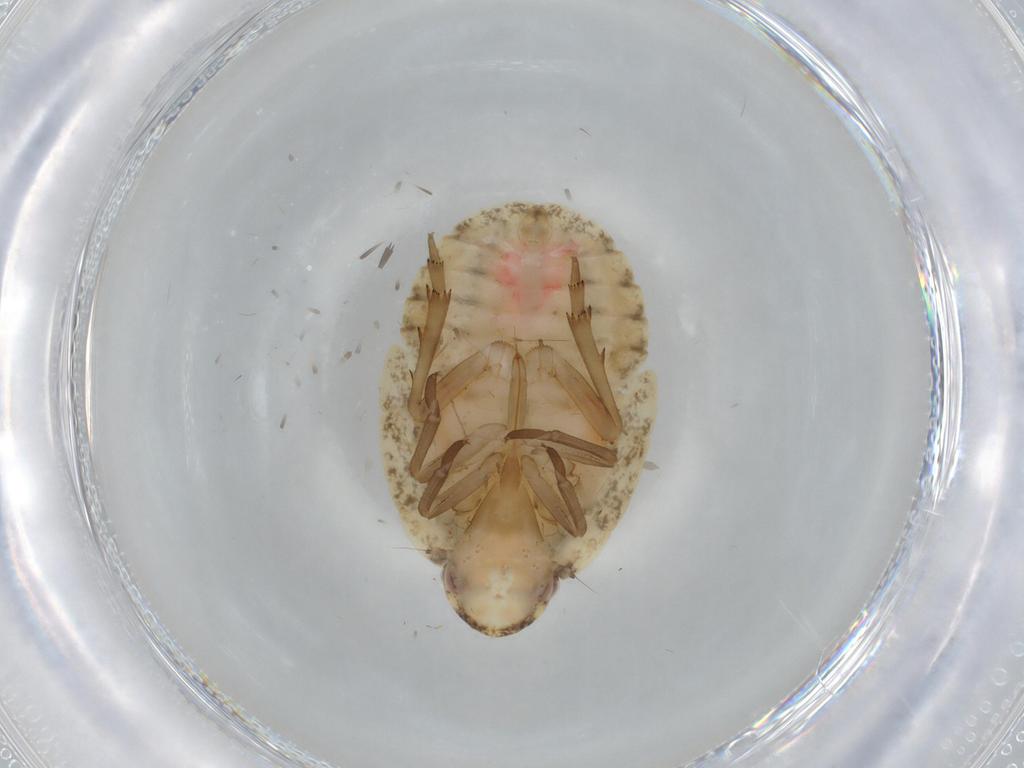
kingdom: Animalia
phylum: Arthropoda
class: Insecta
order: Hemiptera
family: Flatidae
